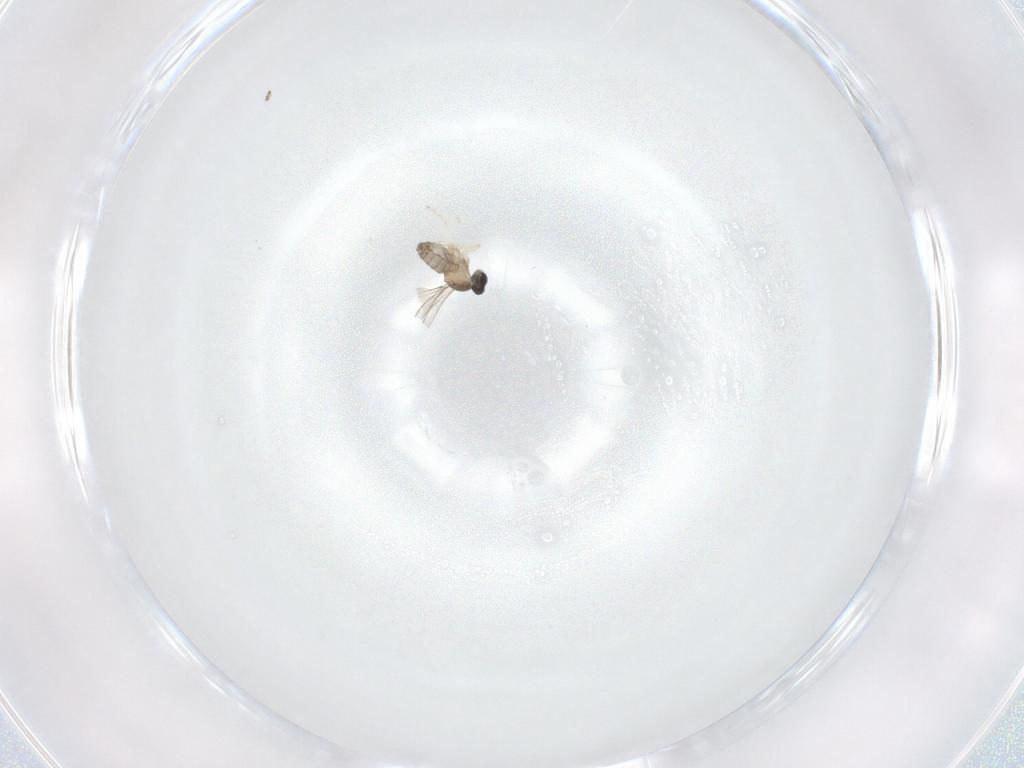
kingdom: Animalia
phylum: Arthropoda
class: Insecta
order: Diptera
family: Cecidomyiidae
